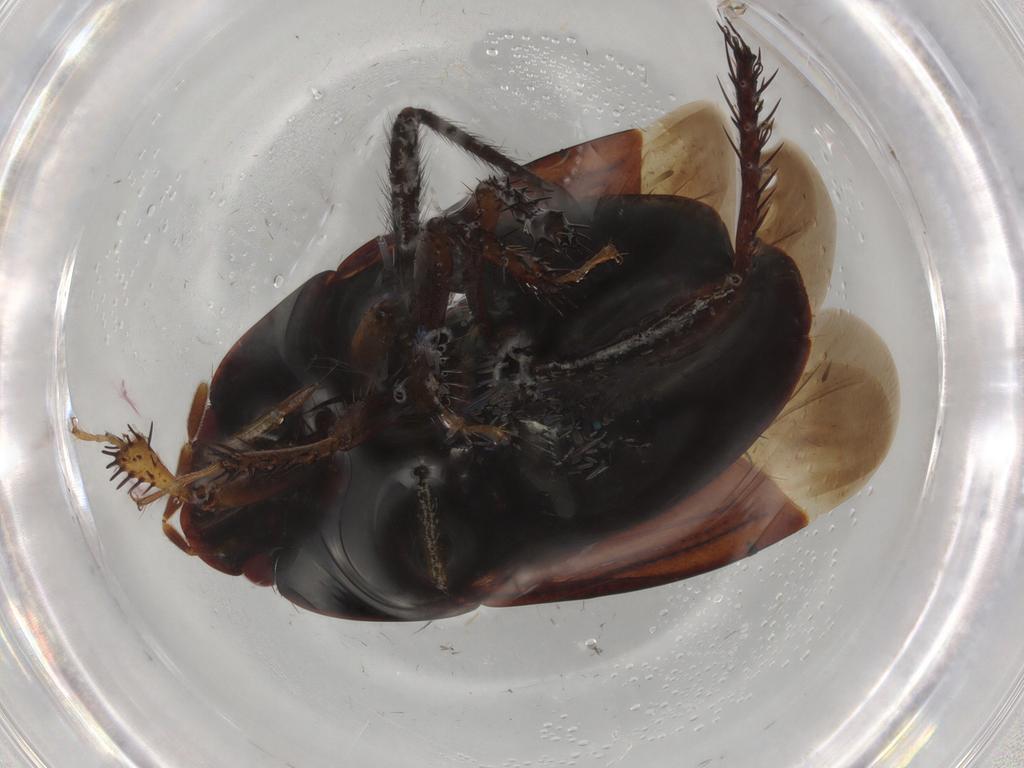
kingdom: Animalia
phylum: Arthropoda
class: Insecta
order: Hemiptera
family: Cydnidae
